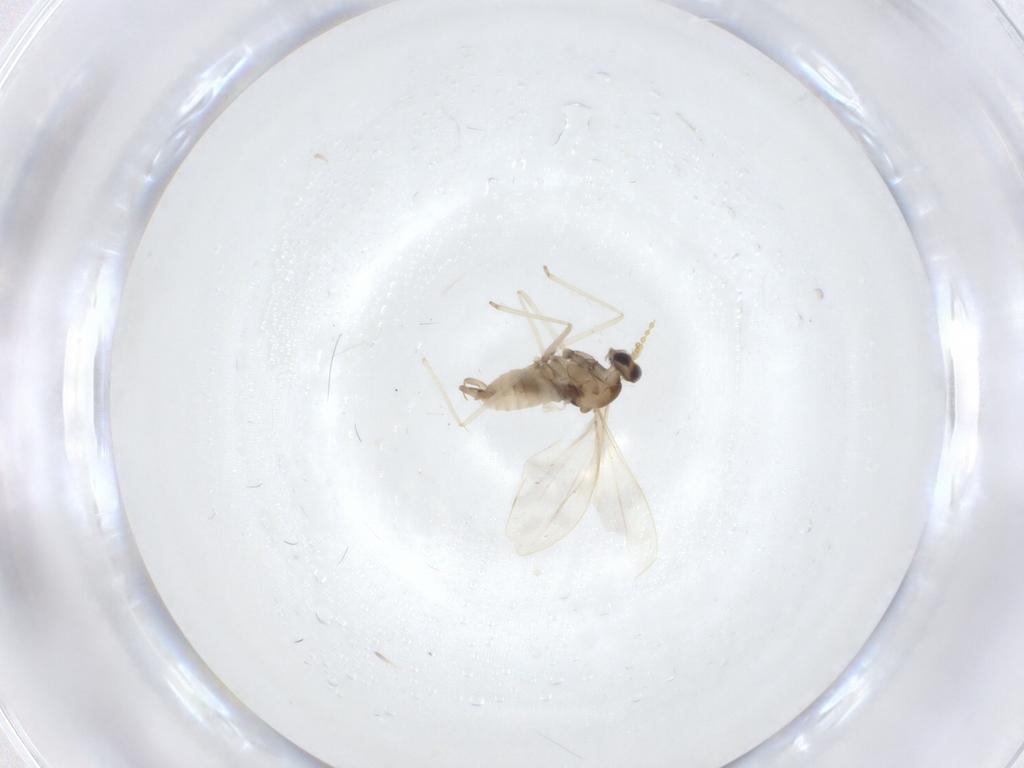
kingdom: Animalia
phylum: Arthropoda
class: Insecta
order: Diptera
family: Cecidomyiidae
